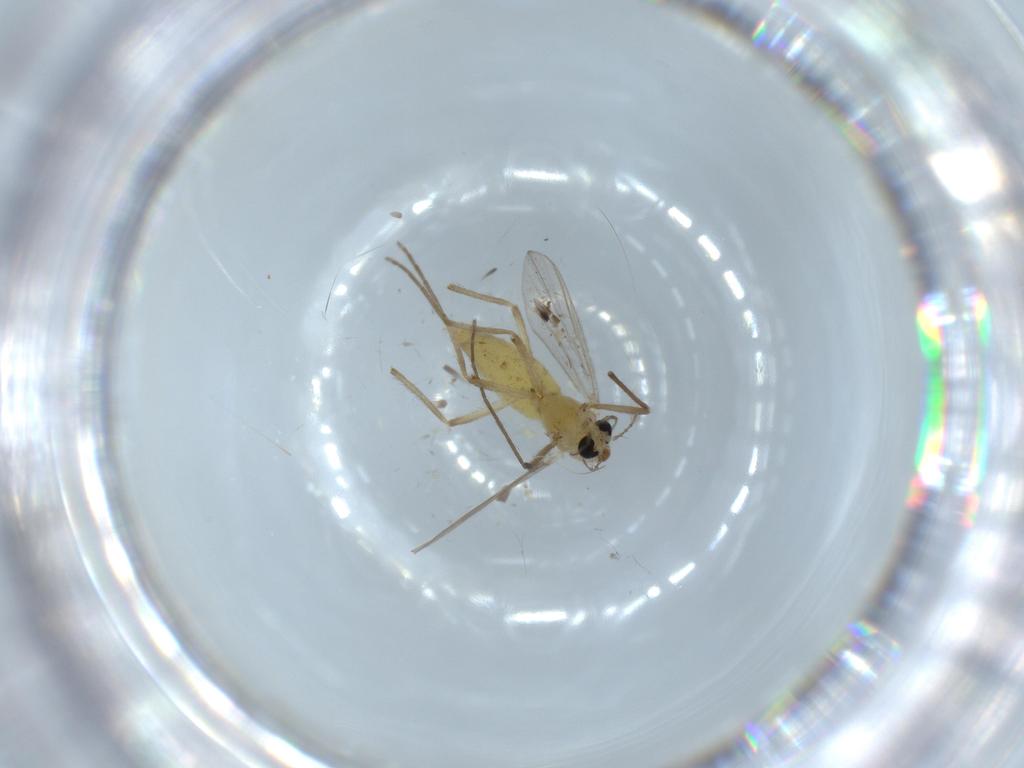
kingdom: Animalia
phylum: Arthropoda
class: Insecta
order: Diptera
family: Chironomidae
